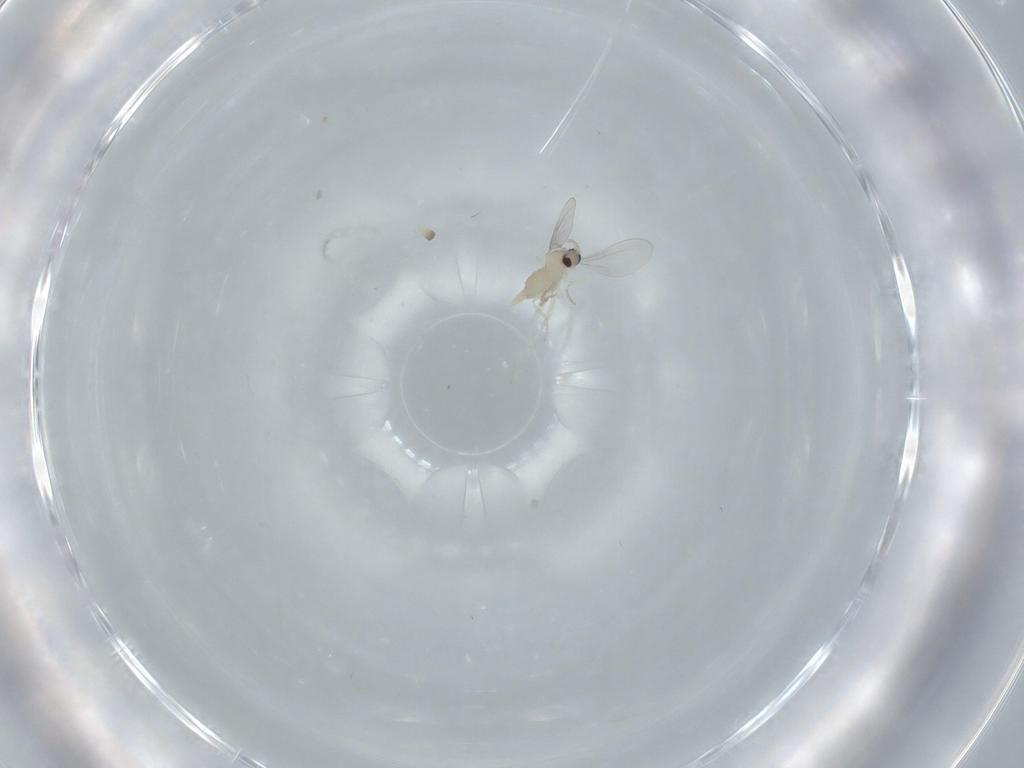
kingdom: Animalia
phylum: Arthropoda
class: Insecta
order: Diptera
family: Cecidomyiidae
